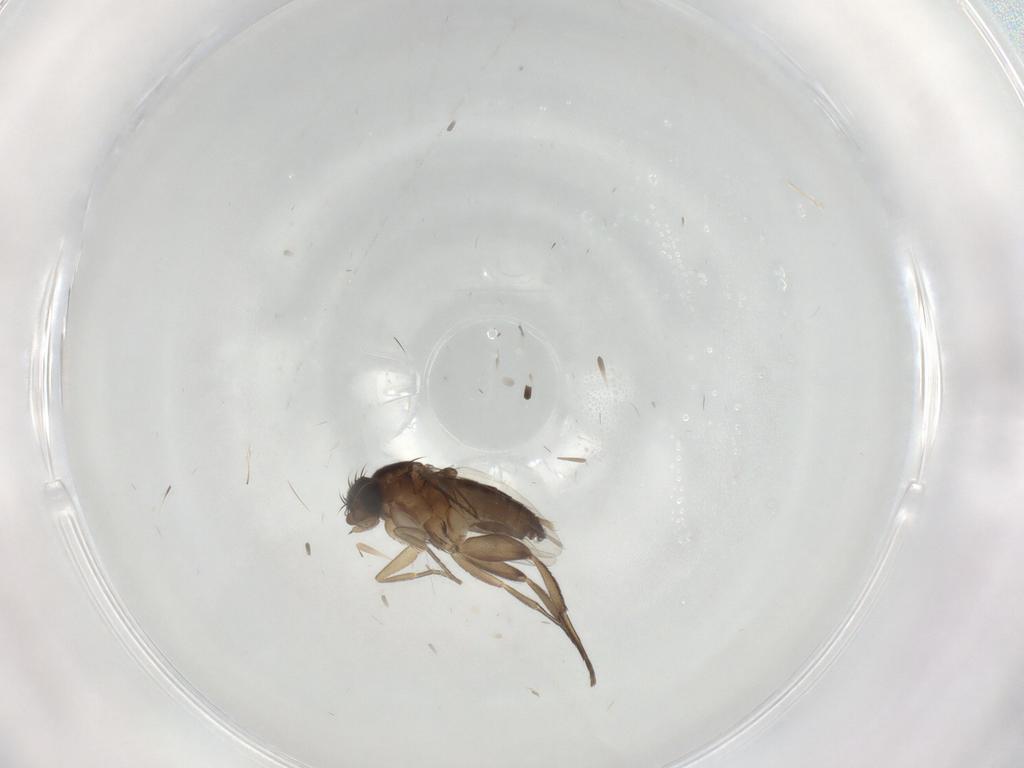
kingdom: Animalia
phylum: Arthropoda
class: Insecta
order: Diptera
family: Phoridae
